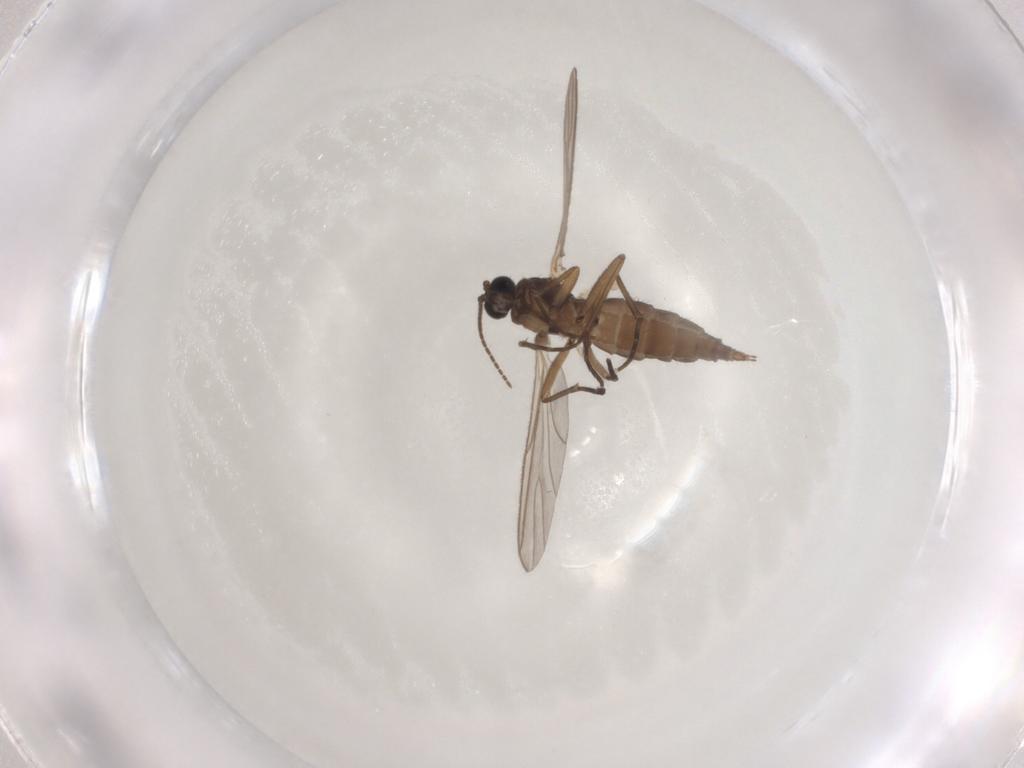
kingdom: Animalia
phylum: Arthropoda
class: Insecta
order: Diptera
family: Sciaridae
